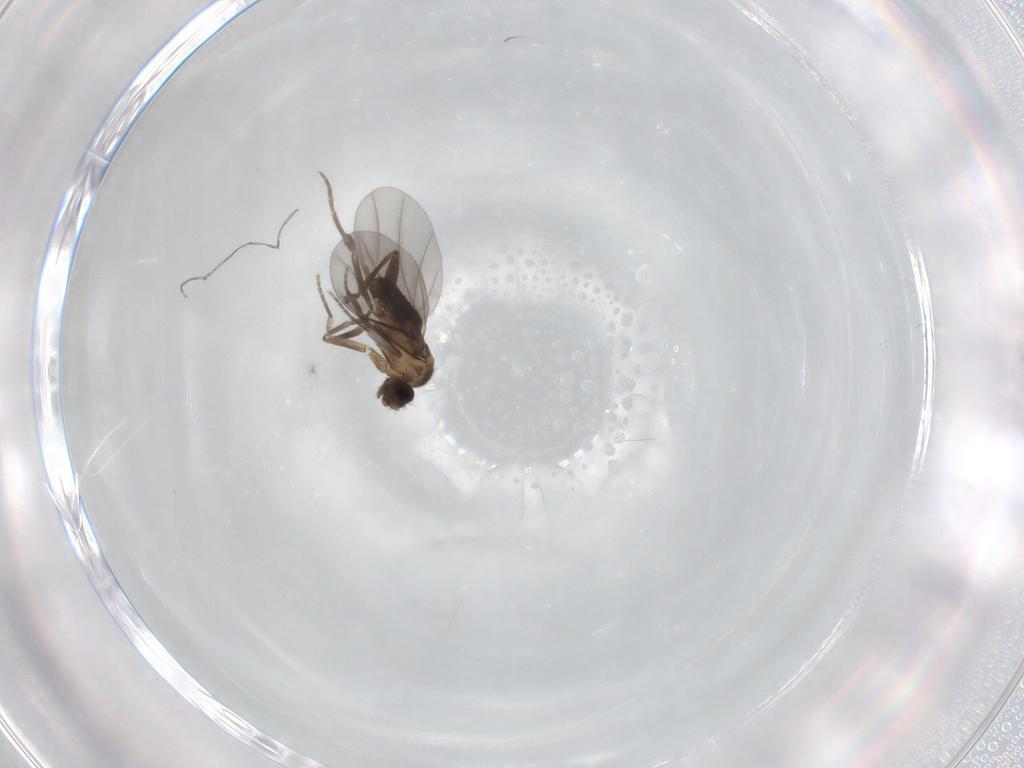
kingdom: Animalia
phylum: Arthropoda
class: Insecta
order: Diptera
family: Phoridae
